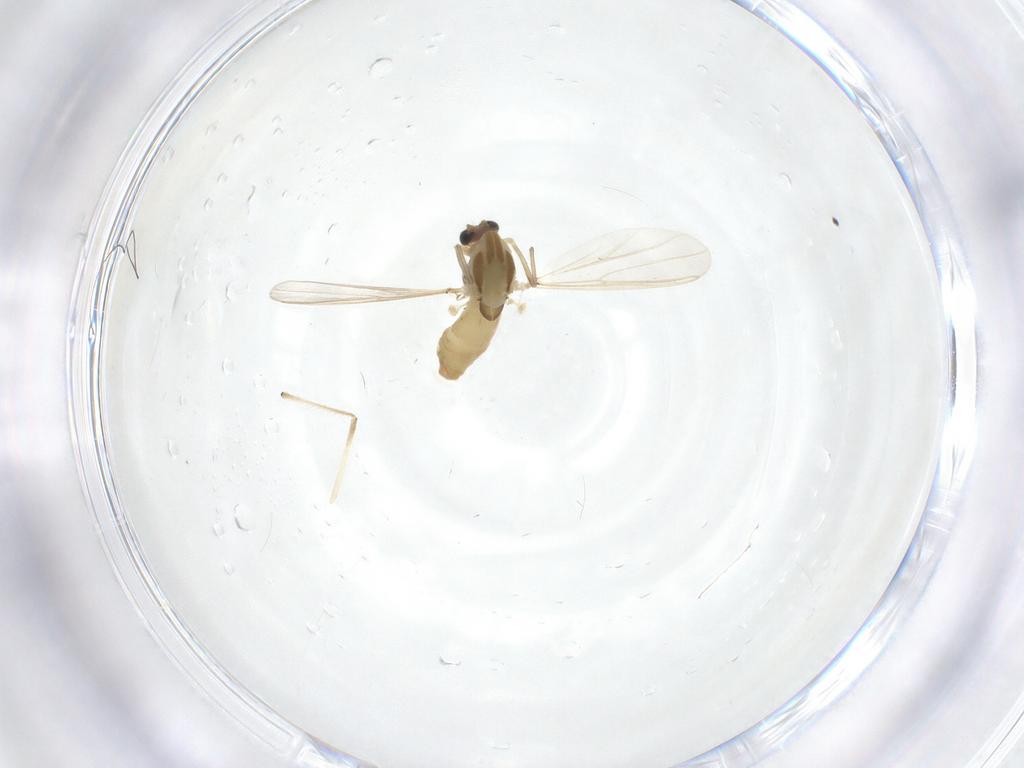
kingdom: Animalia
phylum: Arthropoda
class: Insecta
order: Diptera
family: Chironomidae
